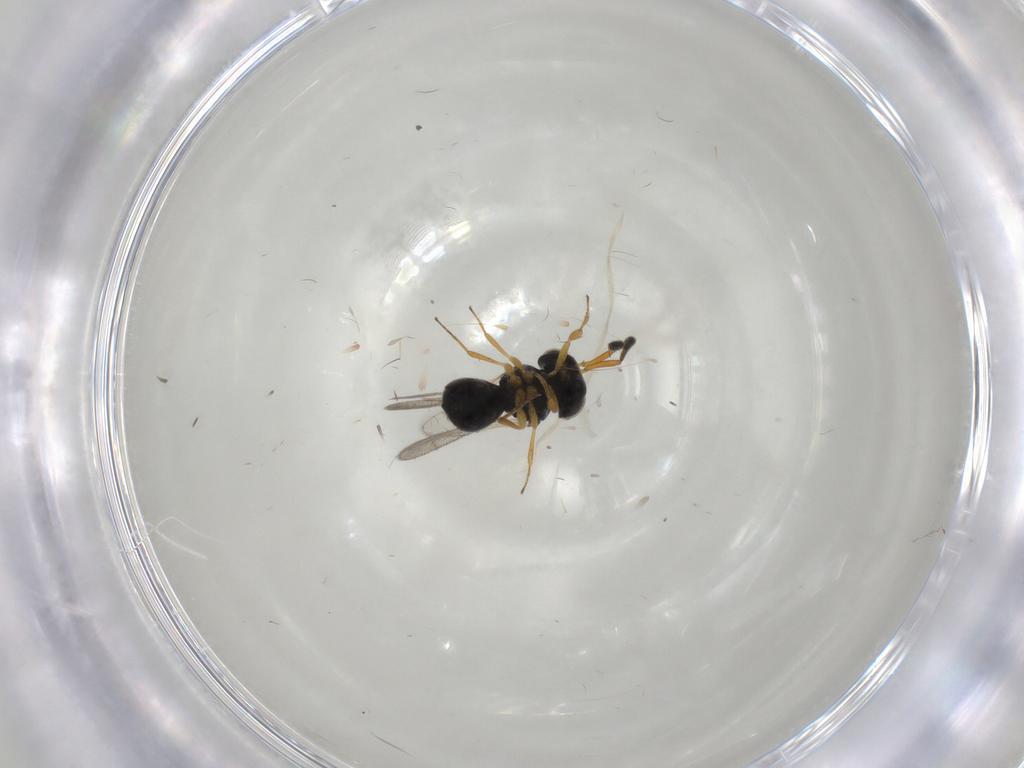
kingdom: Animalia
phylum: Arthropoda
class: Insecta
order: Hymenoptera
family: Scelionidae
